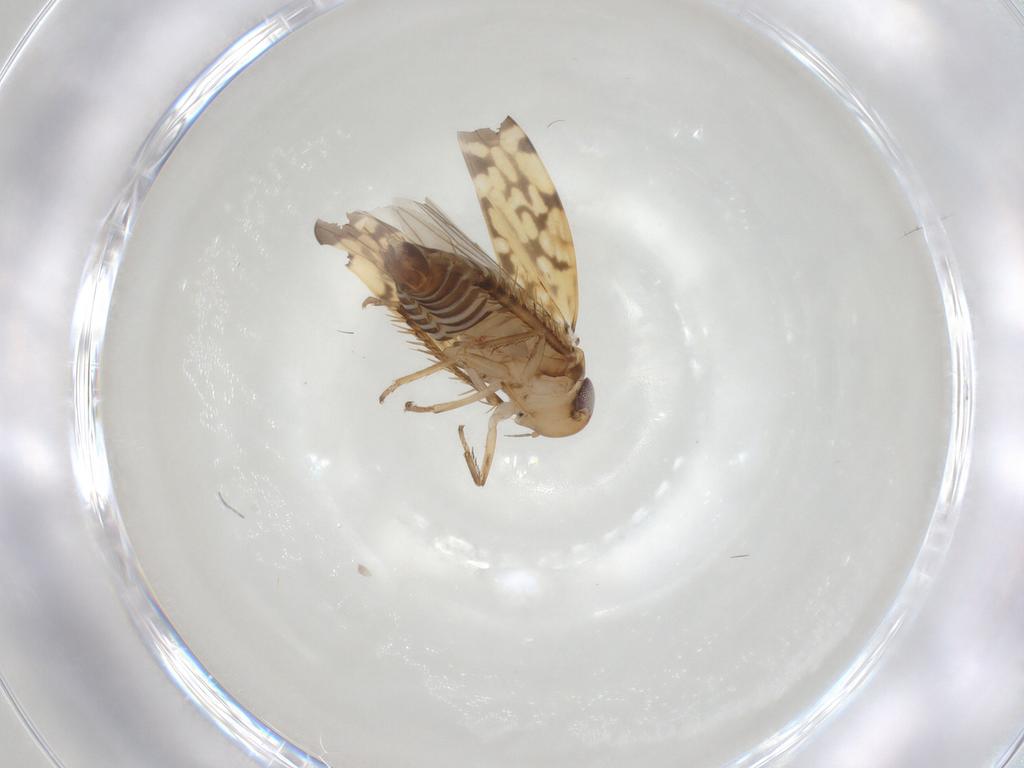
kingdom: Animalia
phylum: Arthropoda
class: Insecta
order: Hemiptera
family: Cicadellidae
